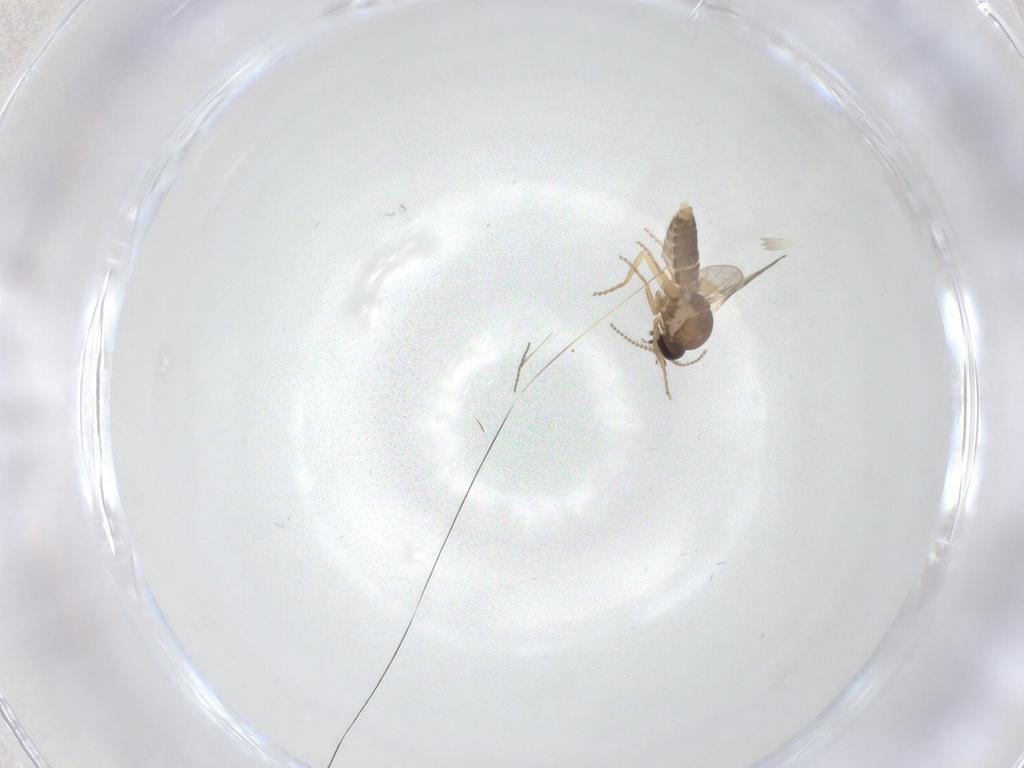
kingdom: Animalia
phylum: Arthropoda
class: Insecta
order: Diptera
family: Ceratopogonidae
